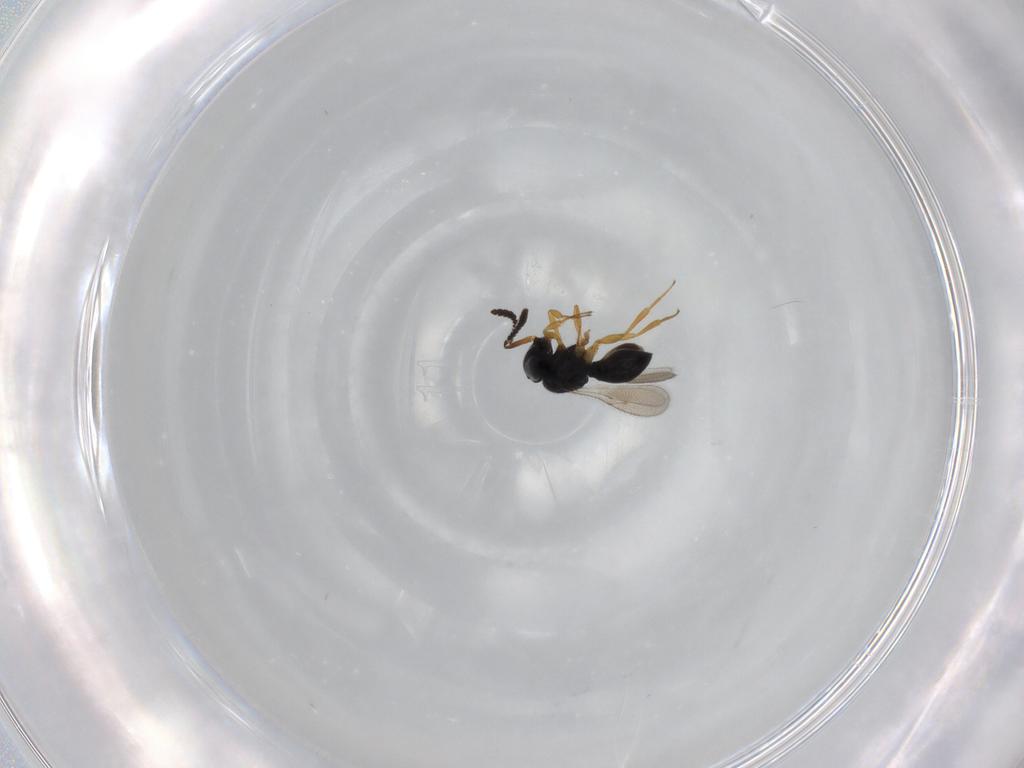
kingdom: Animalia
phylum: Arthropoda
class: Insecta
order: Hymenoptera
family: Scelionidae
